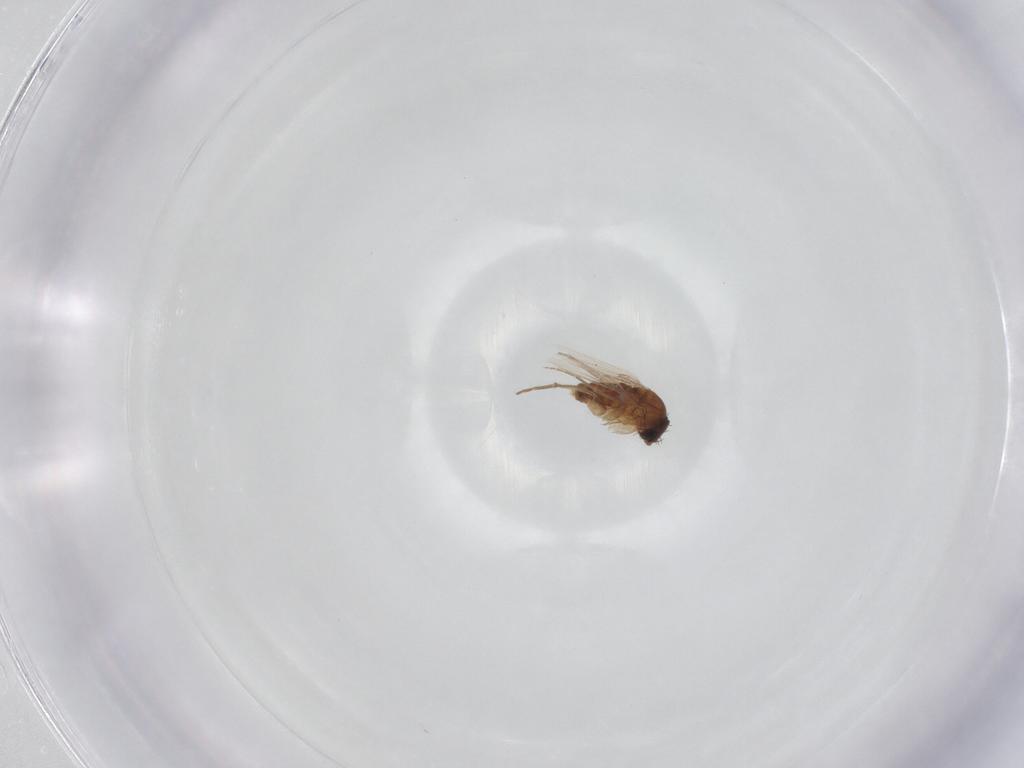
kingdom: Animalia
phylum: Arthropoda
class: Insecta
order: Diptera
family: Phoridae
